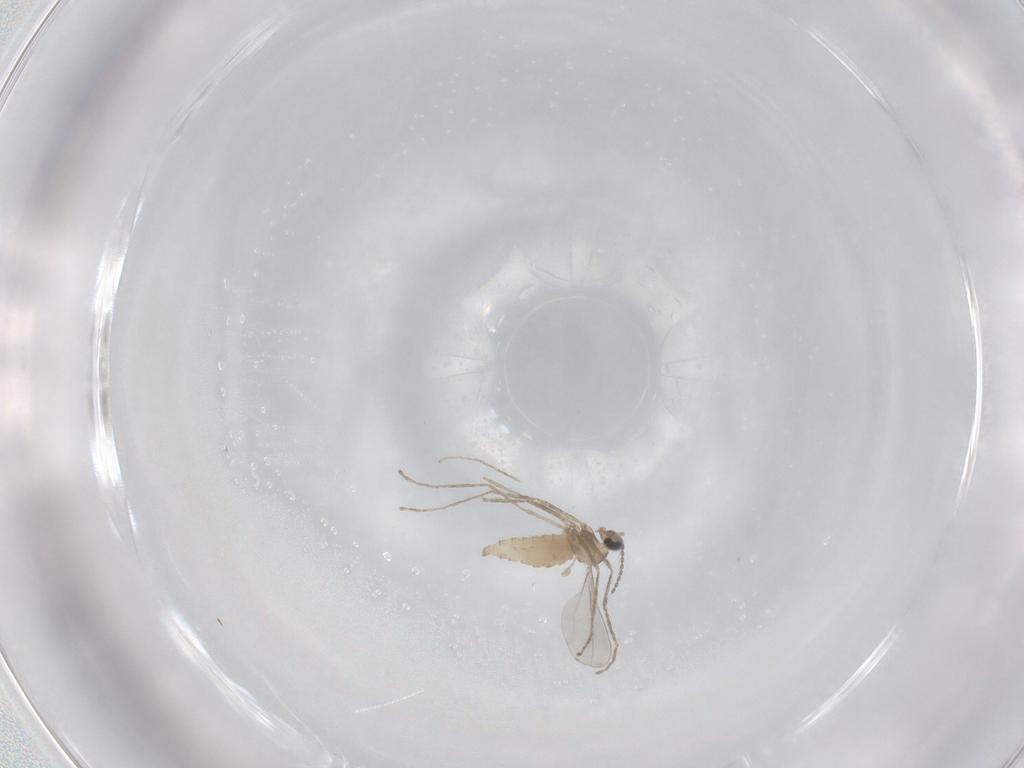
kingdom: Animalia
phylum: Arthropoda
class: Insecta
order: Diptera
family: Cecidomyiidae
